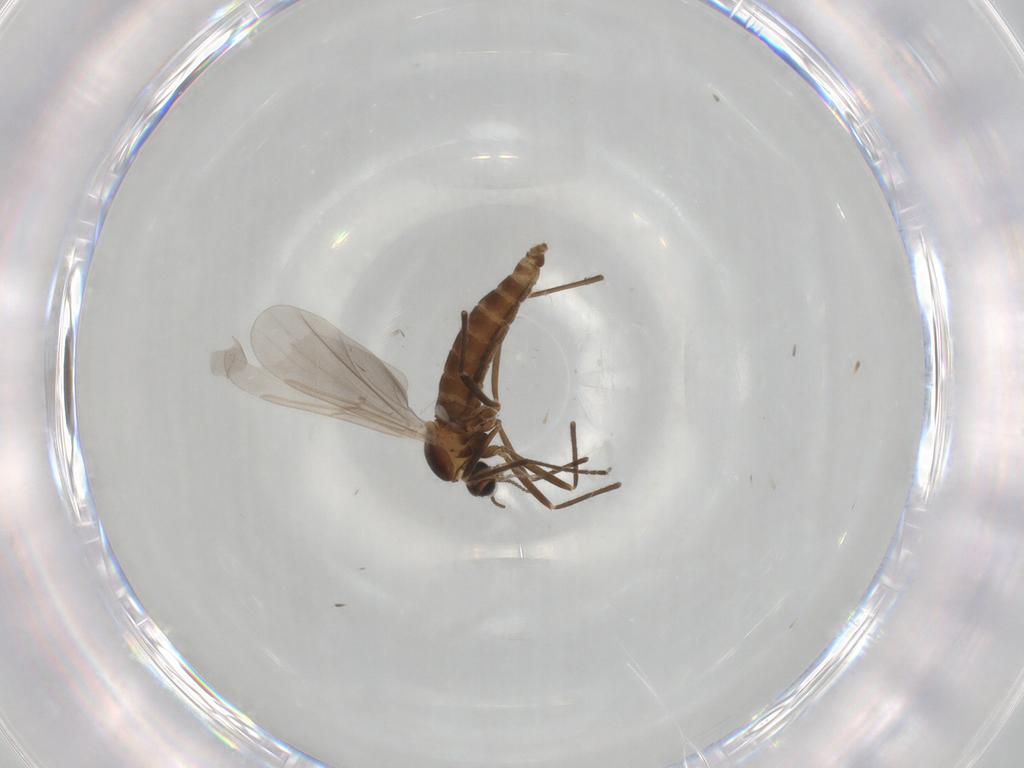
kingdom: Animalia
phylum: Arthropoda
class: Insecta
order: Diptera
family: Cecidomyiidae
